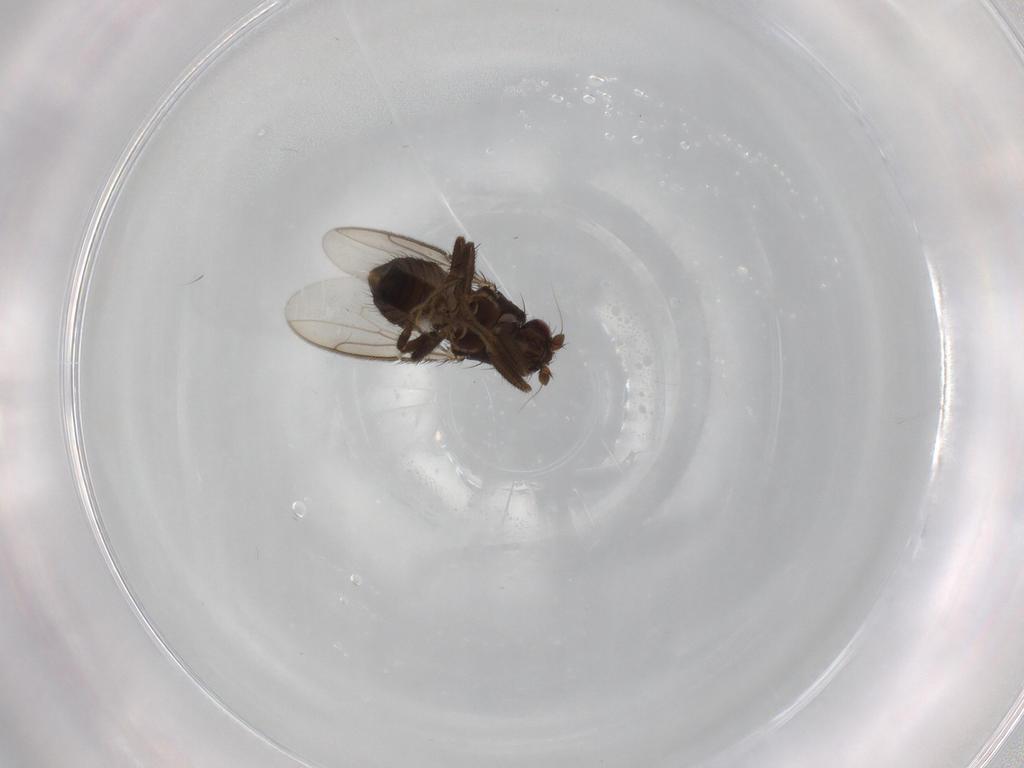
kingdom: Animalia
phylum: Arthropoda
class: Insecta
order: Diptera
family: Sphaeroceridae
